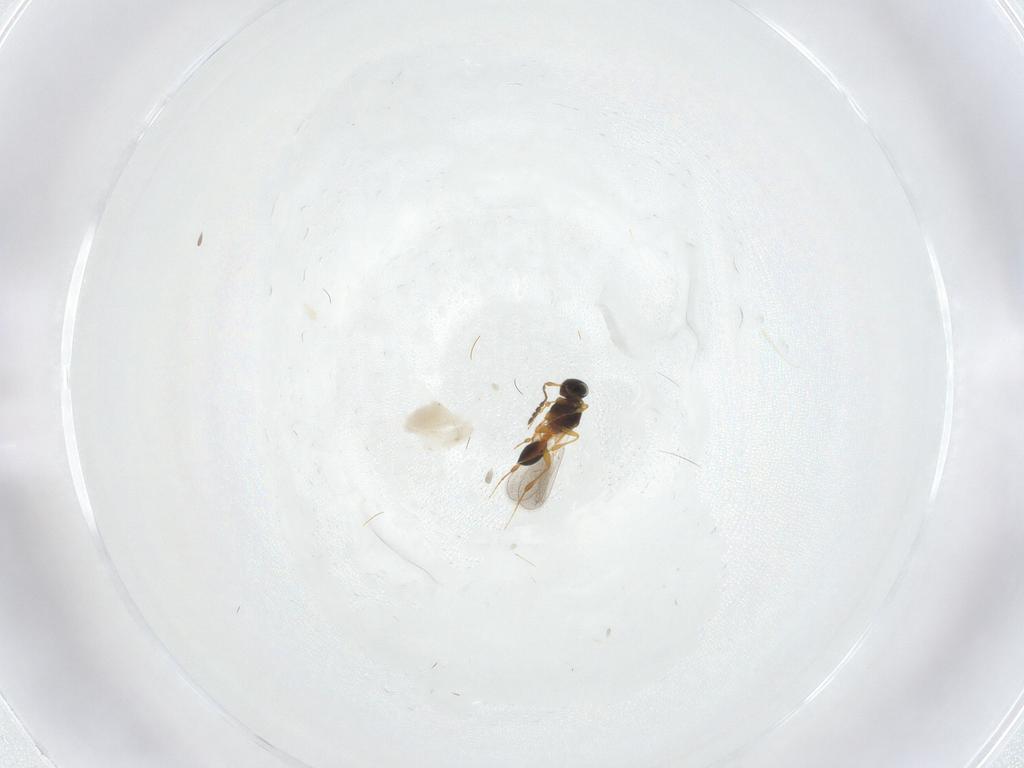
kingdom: Animalia
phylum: Arthropoda
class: Insecta
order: Hymenoptera
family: Platygastridae
